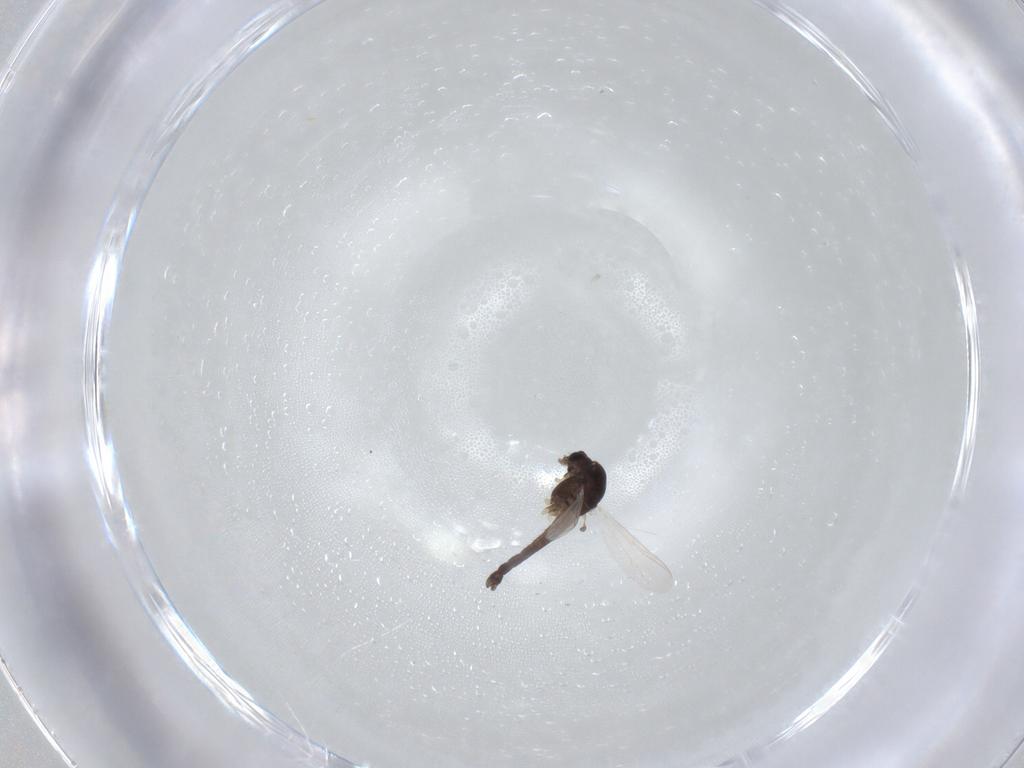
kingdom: Animalia
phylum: Arthropoda
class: Insecta
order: Diptera
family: Chironomidae
